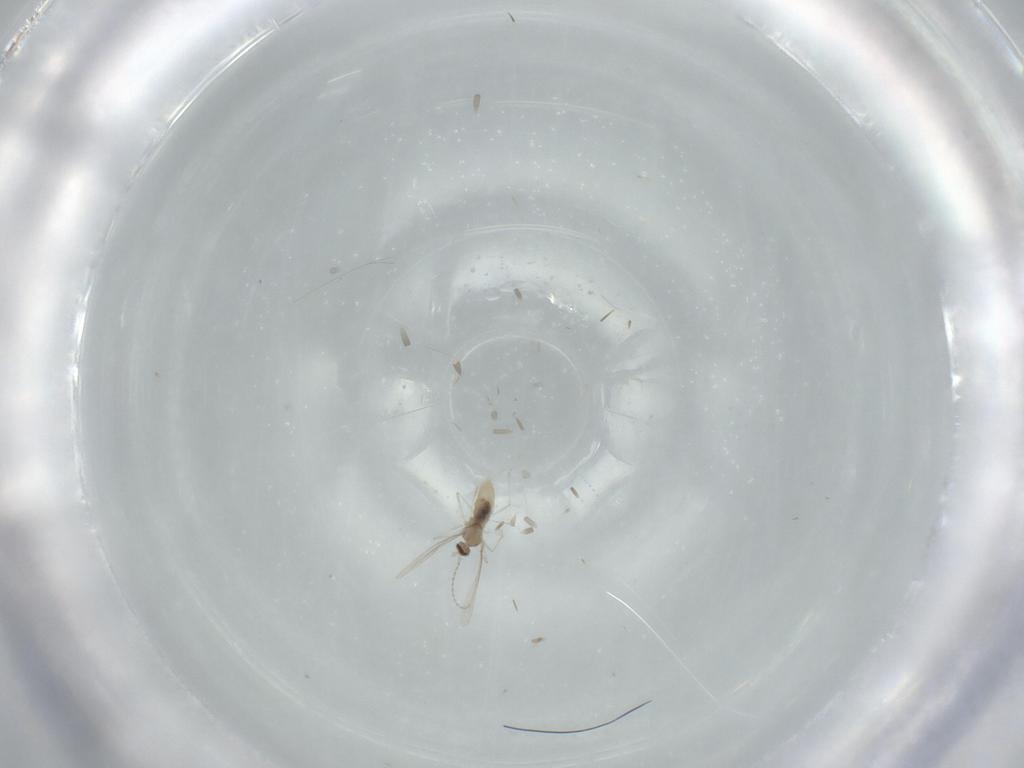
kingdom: Animalia
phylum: Arthropoda
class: Insecta
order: Diptera
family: Cecidomyiidae
